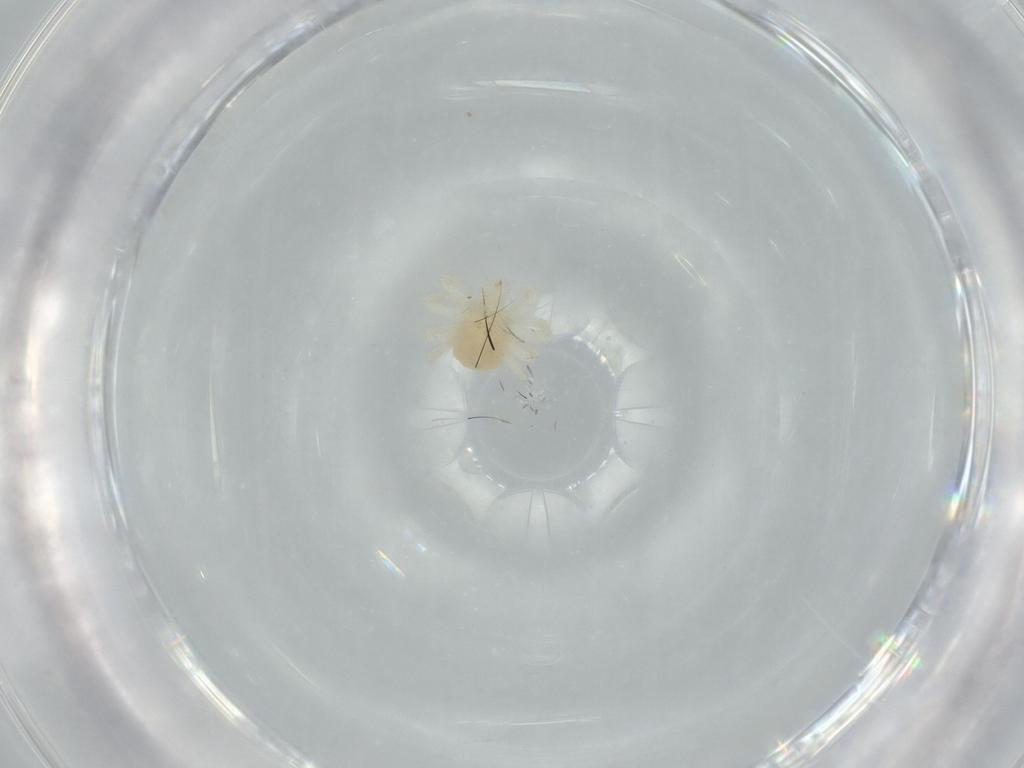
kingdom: Animalia
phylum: Arthropoda
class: Arachnida
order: Trombidiformes
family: Anystidae
